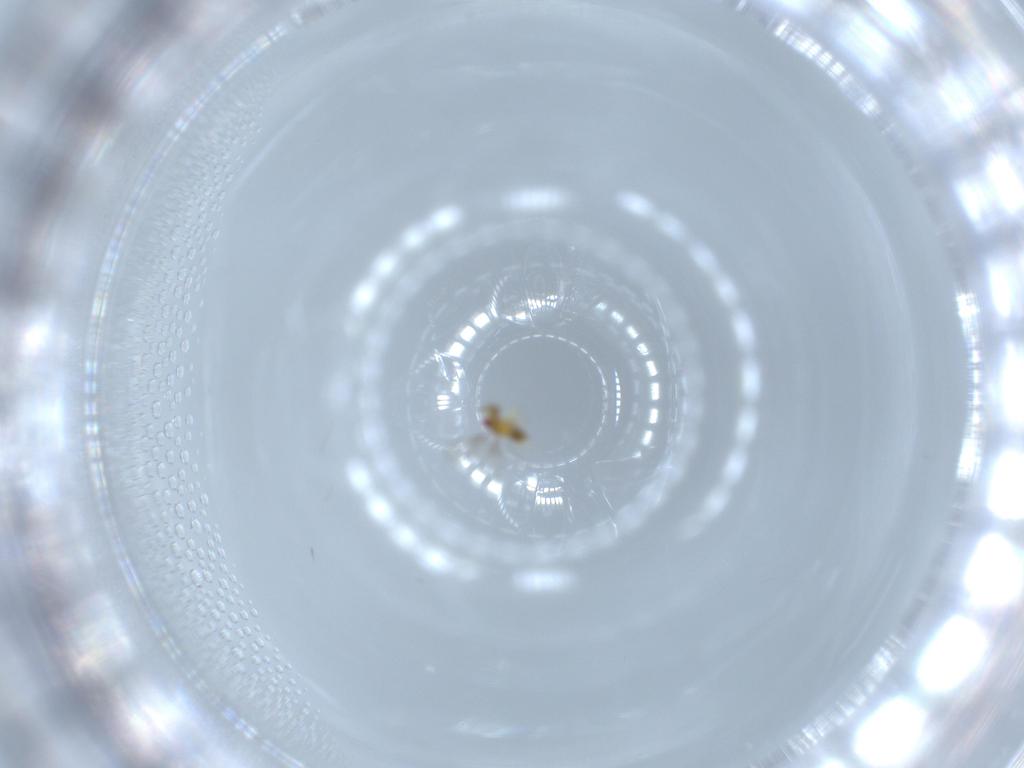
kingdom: Animalia
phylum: Arthropoda
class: Insecta
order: Hymenoptera
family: Trichogrammatidae
